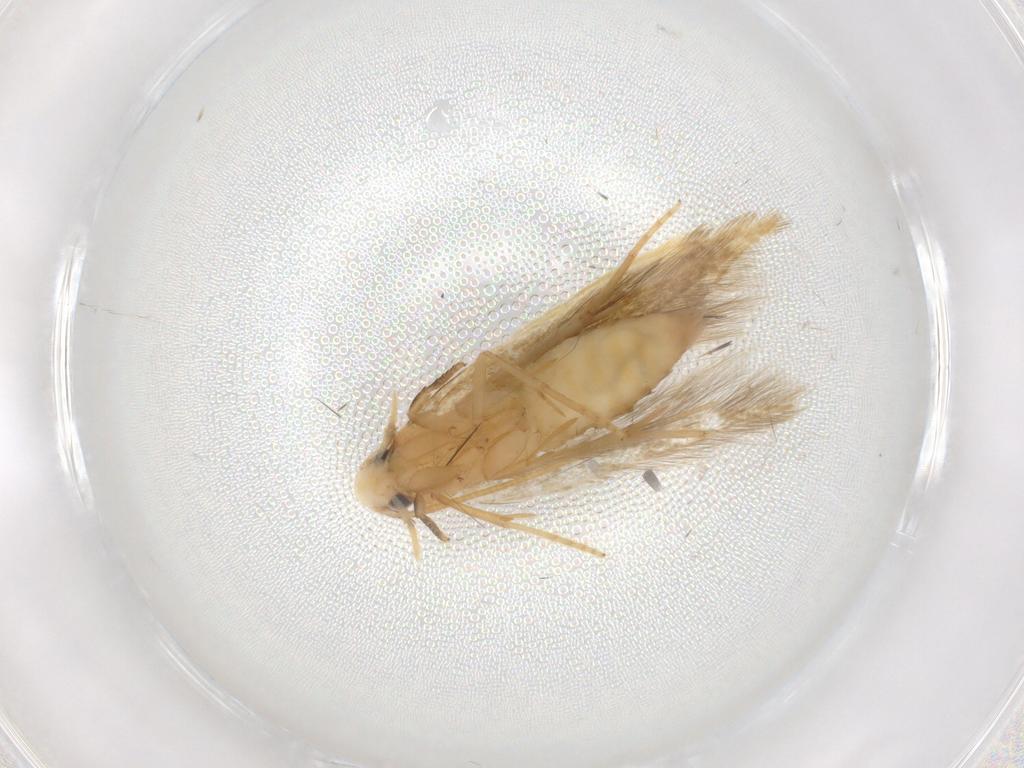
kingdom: Animalia
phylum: Arthropoda
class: Insecta
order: Lepidoptera
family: Tineidae
